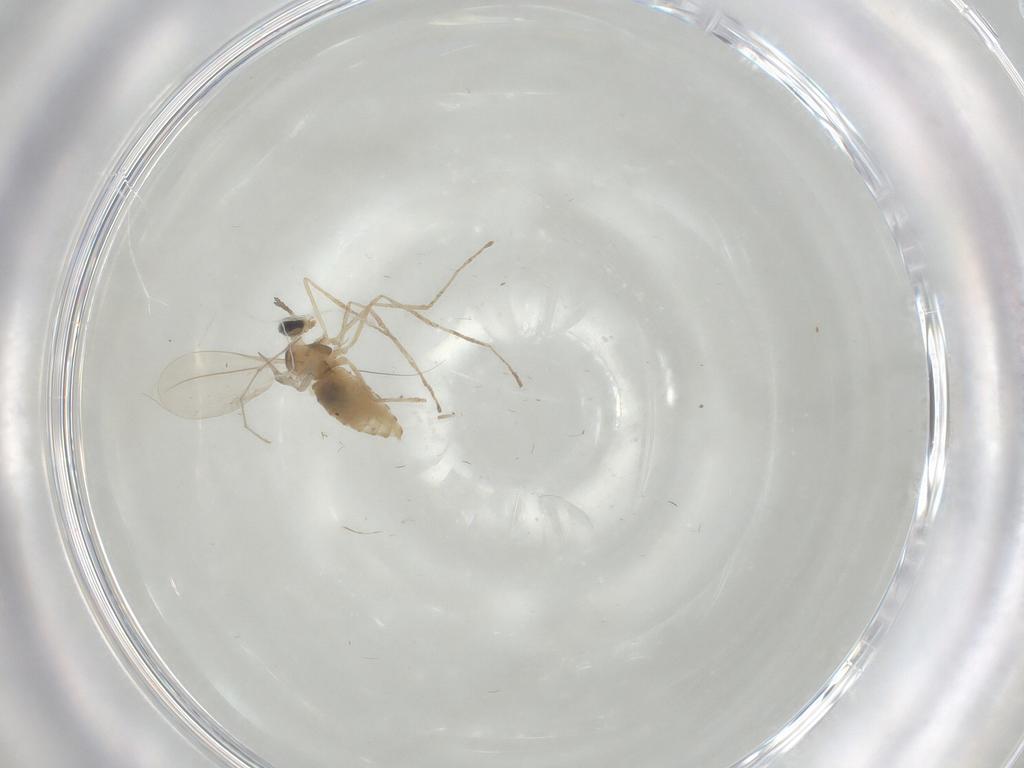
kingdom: Animalia
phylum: Arthropoda
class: Insecta
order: Diptera
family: Cecidomyiidae
